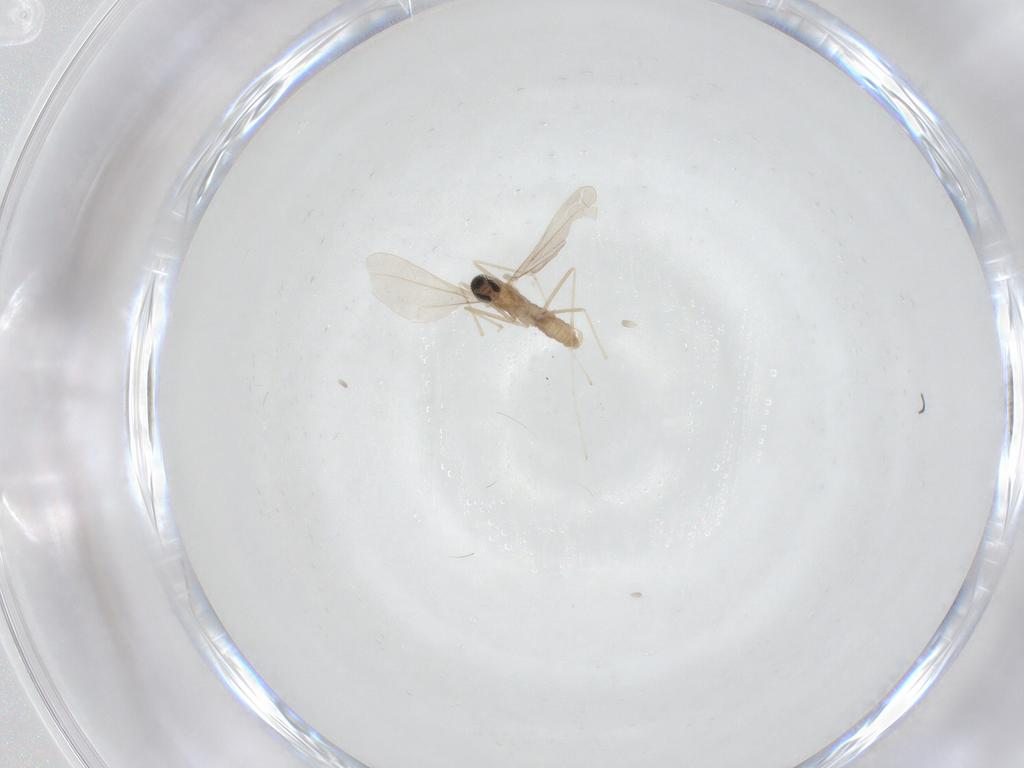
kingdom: Animalia
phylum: Arthropoda
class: Insecta
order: Diptera
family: Cecidomyiidae
